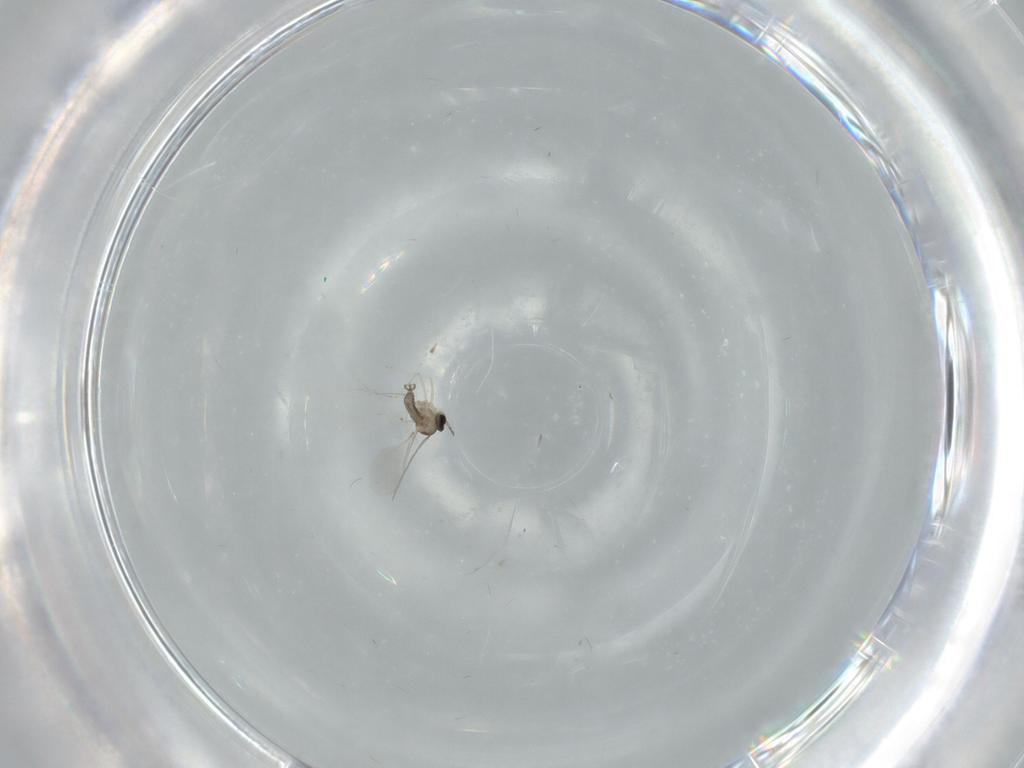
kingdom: Animalia
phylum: Arthropoda
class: Insecta
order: Diptera
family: Cecidomyiidae
